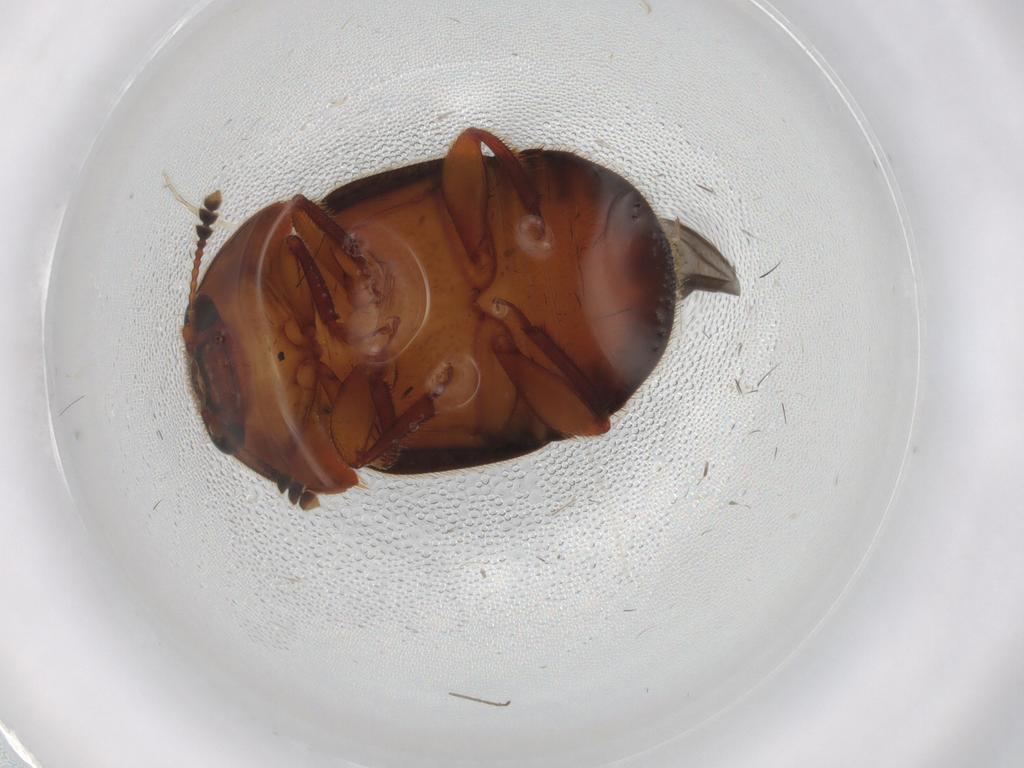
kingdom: Animalia
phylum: Arthropoda
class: Insecta
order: Coleoptera
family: Nitidulidae
